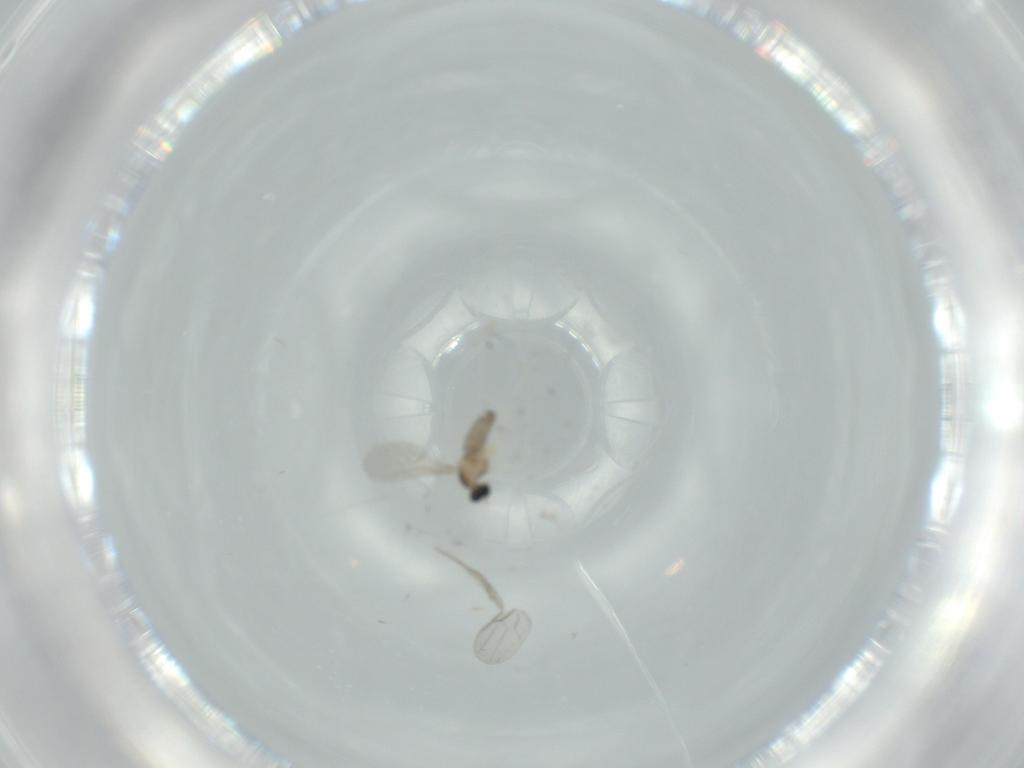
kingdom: Animalia
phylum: Arthropoda
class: Insecta
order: Diptera
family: Cecidomyiidae
